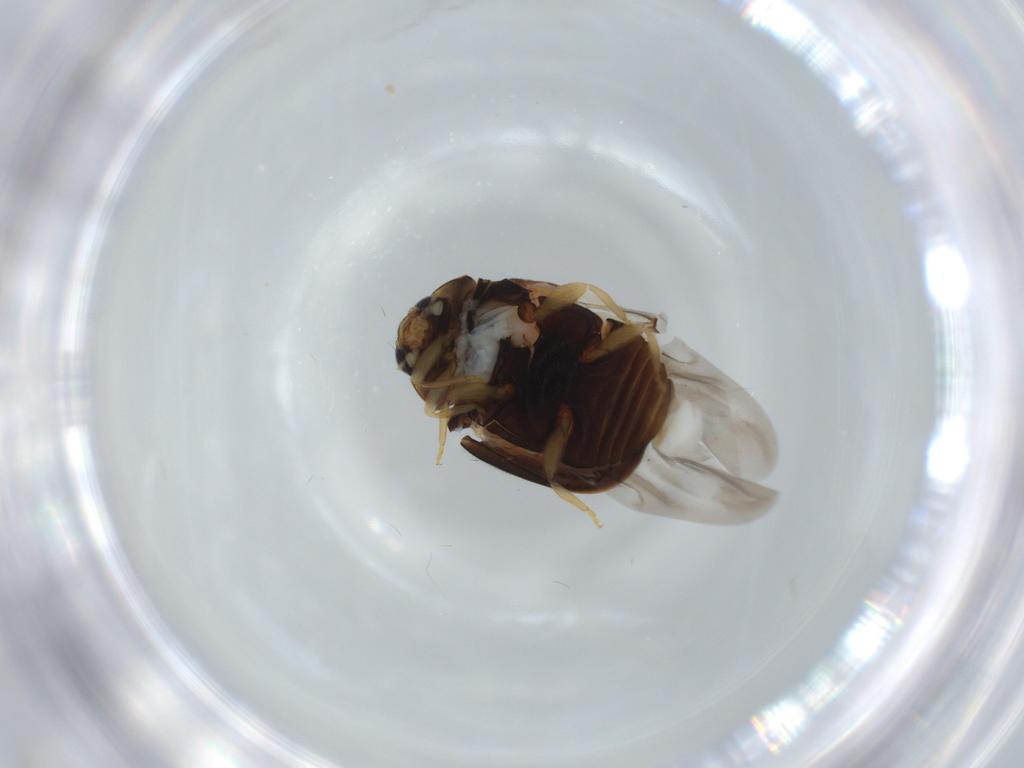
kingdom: Animalia
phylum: Arthropoda
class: Insecta
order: Coleoptera
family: Coccinellidae
